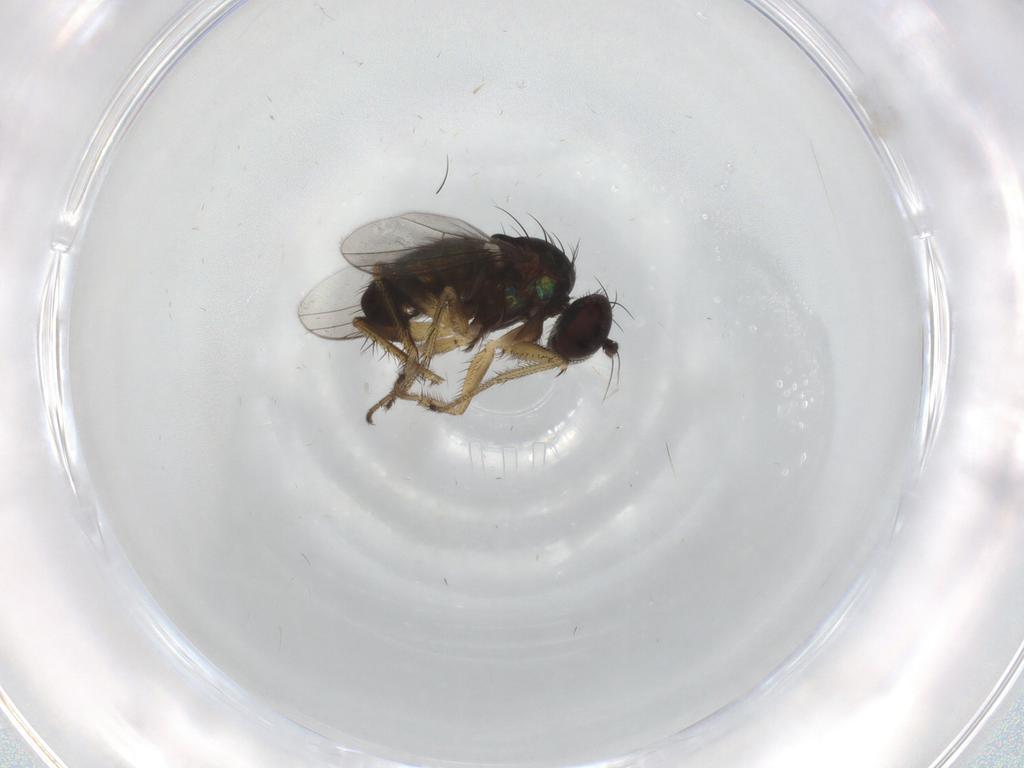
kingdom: Animalia
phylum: Arthropoda
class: Insecta
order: Diptera
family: Dolichopodidae
